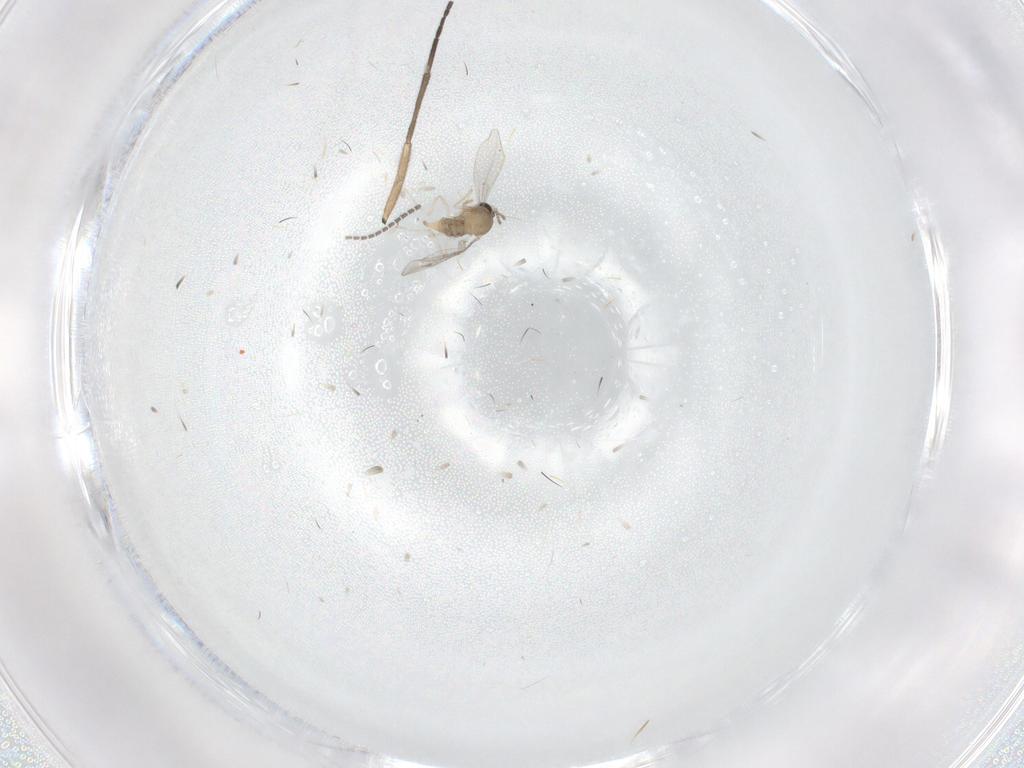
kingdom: Animalia
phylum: Arthropoda
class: Insecta
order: Diptera
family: Cecidomyiidae
